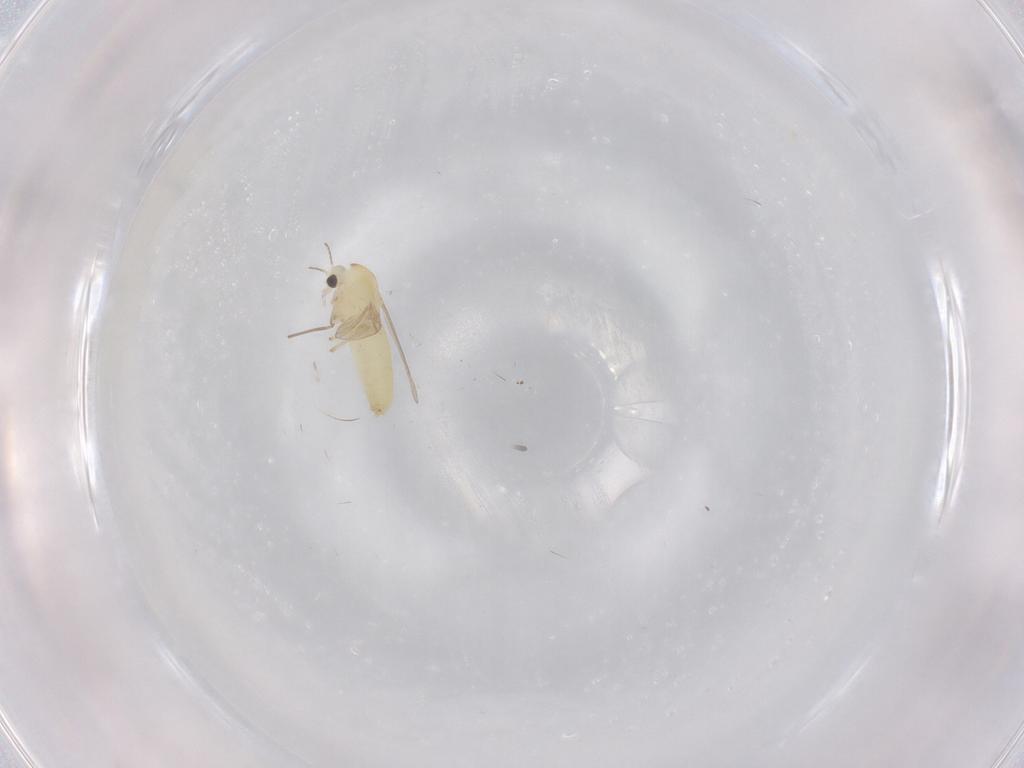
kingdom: Animalia
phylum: Arthropoda
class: Insecta
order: Diptera
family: Chironomidae
